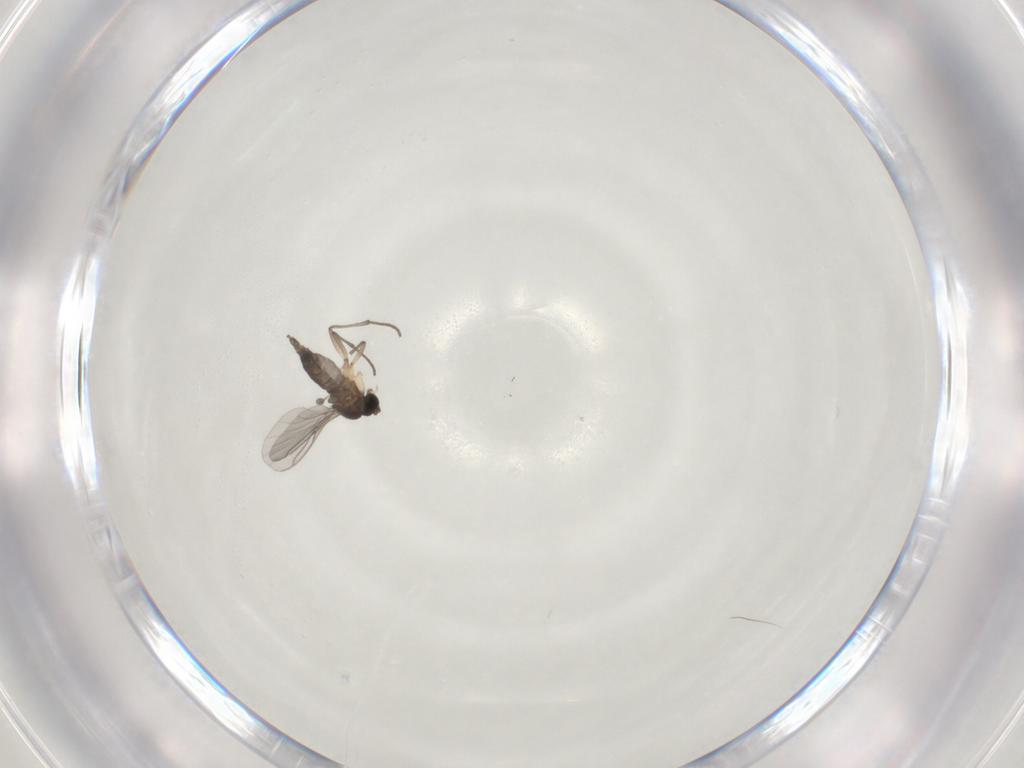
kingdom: Animalia
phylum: Arthropoda
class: Insecta
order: Diptera
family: Sciaridae
